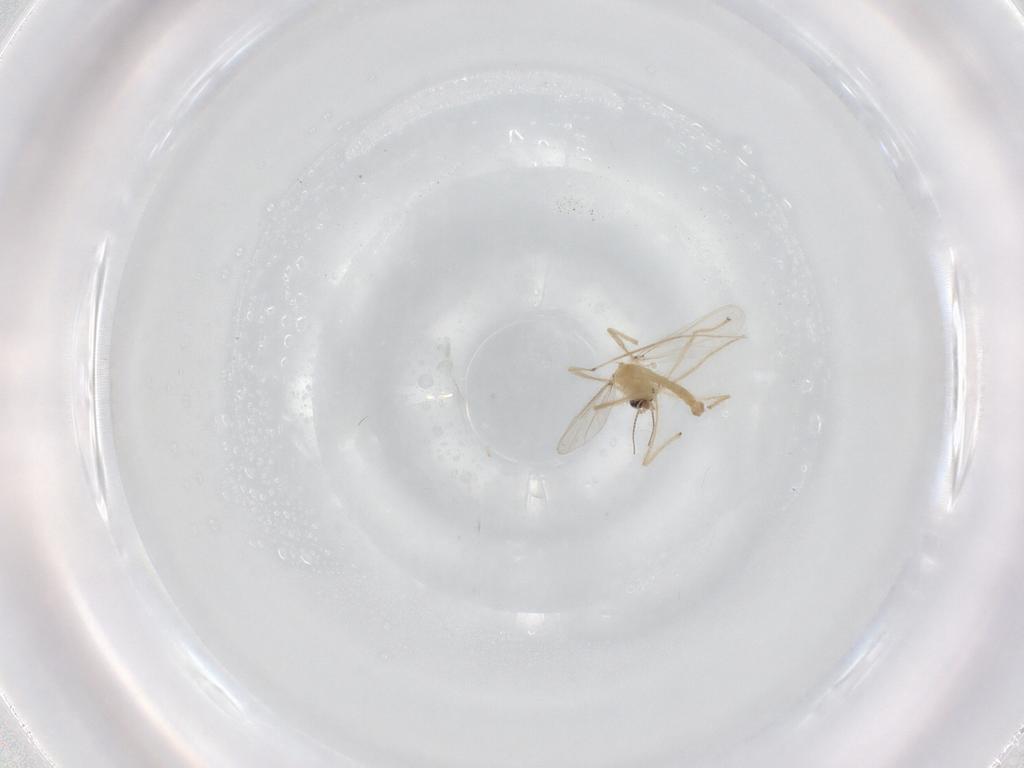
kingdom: Animalia
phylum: Arthropoda
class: Insecta
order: Diptera
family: Chironomidae
